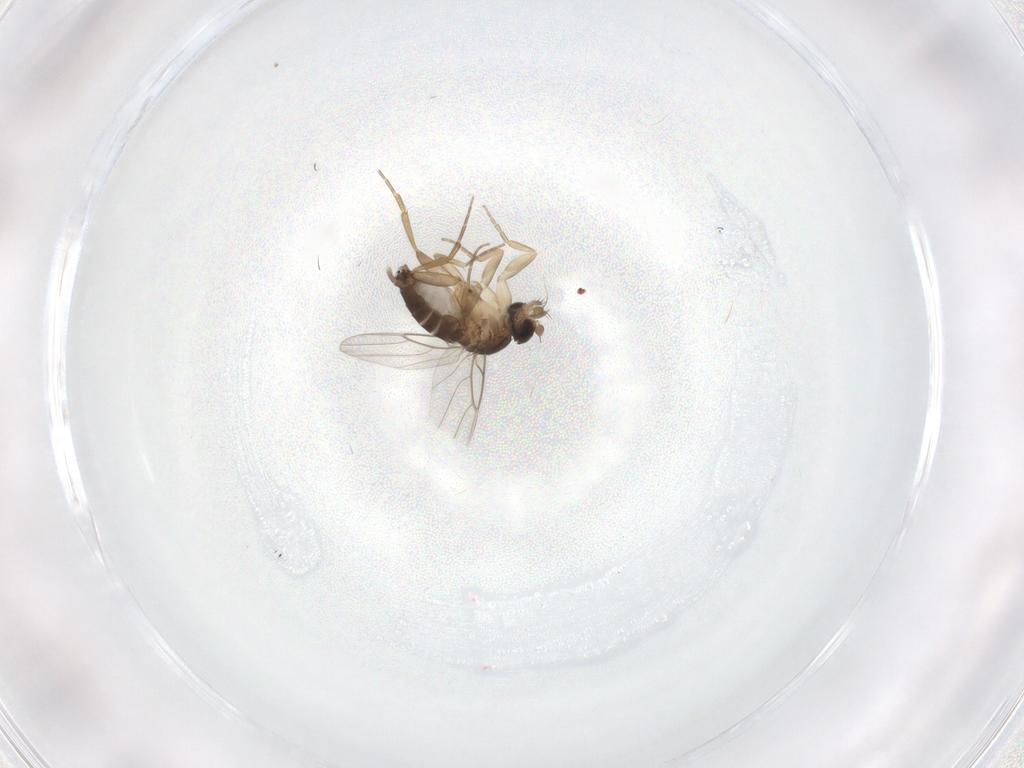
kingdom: Animalia
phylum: Arthropoda
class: Insecta
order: Diptera
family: Phoridae
